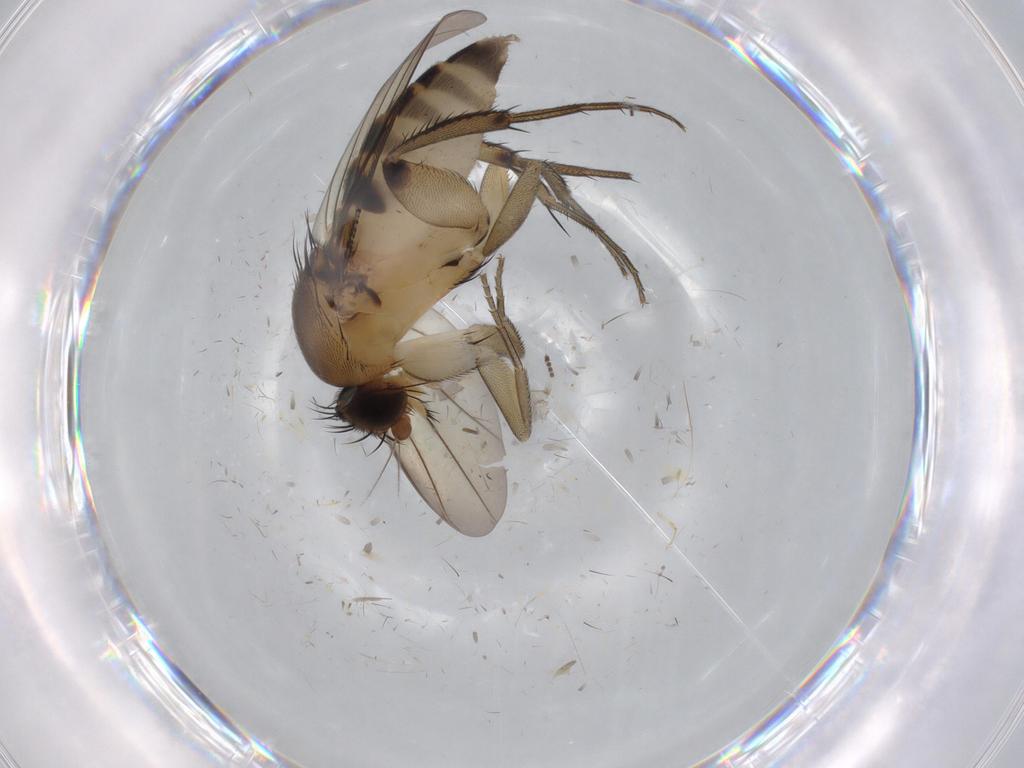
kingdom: Animalia
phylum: Arthropoda
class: Insecta
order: Diptera
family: Sciaridae
